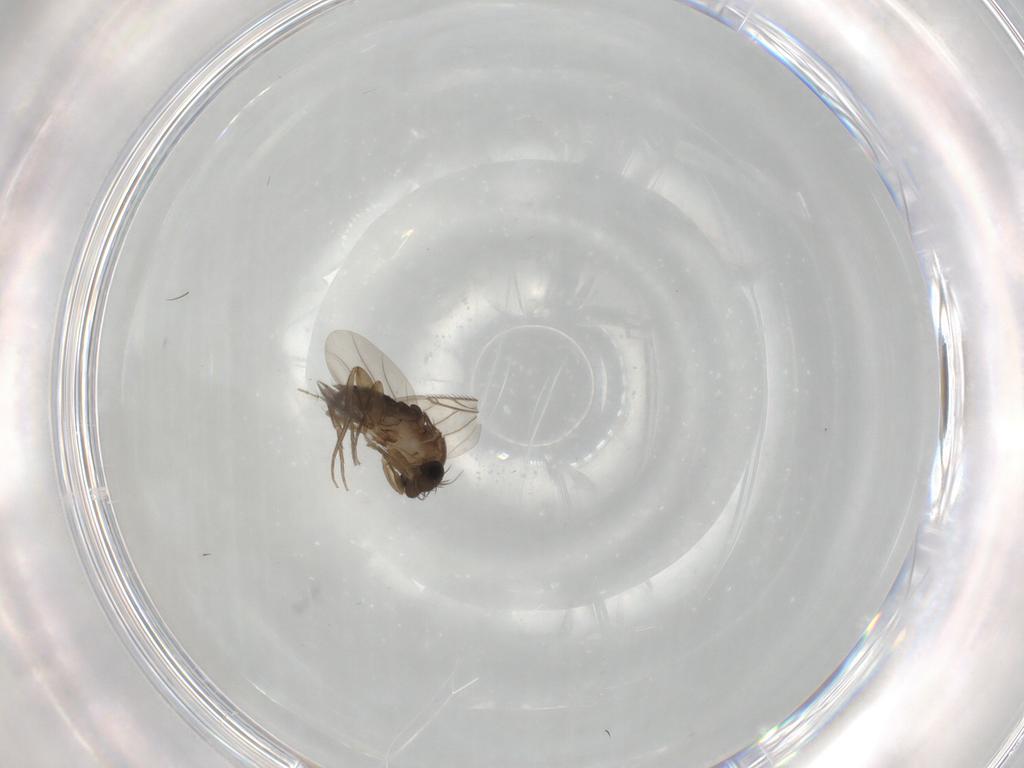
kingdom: Animalia
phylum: Arthropoda
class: Insecta
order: Diptera
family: Phoridae
